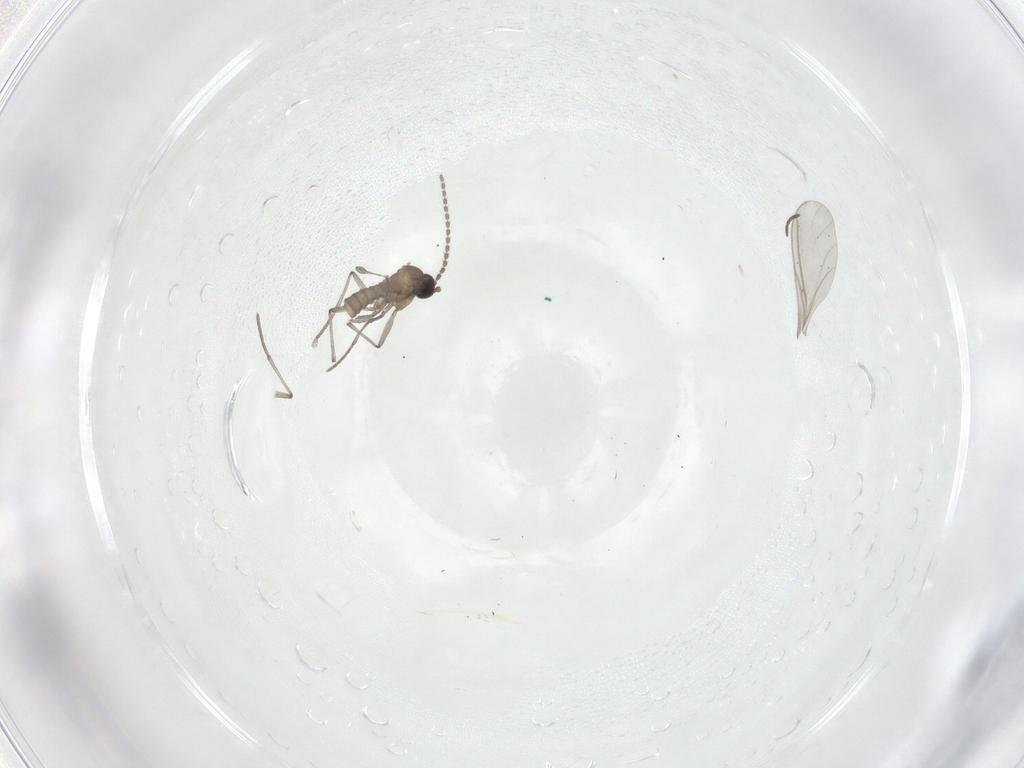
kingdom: Animalia
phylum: Arthropoda
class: Insecta
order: Diptera
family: Sciaridae
